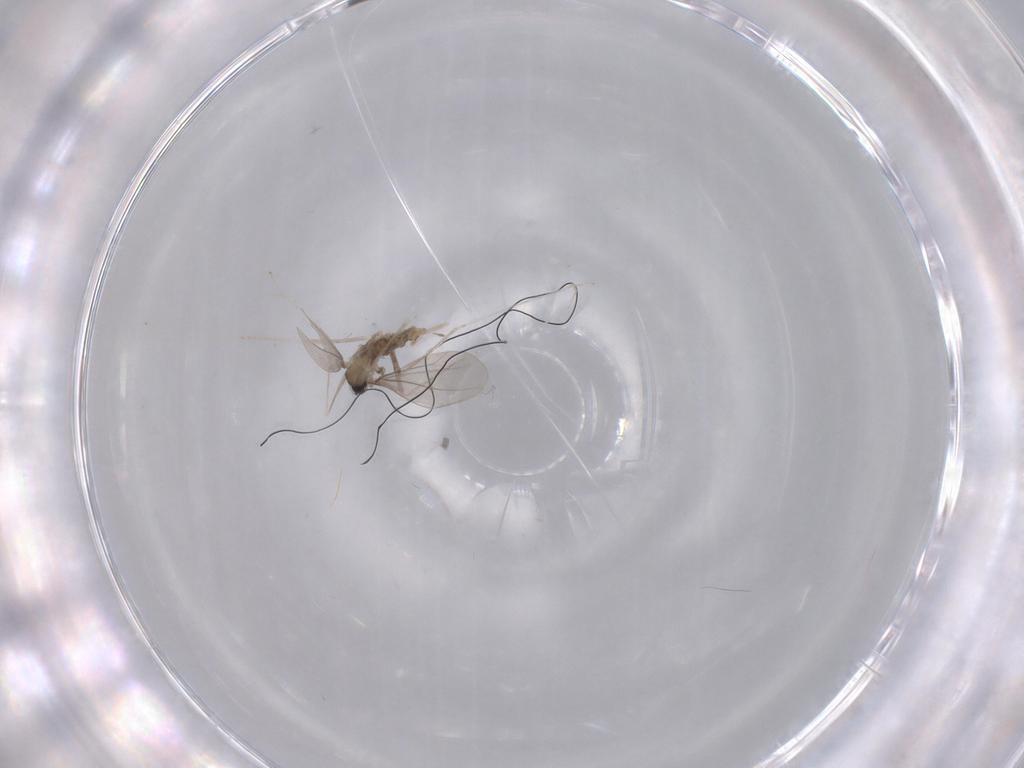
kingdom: Animalia
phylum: Arthropoda
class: Insecta
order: Diptera
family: Cecidomyiidae
